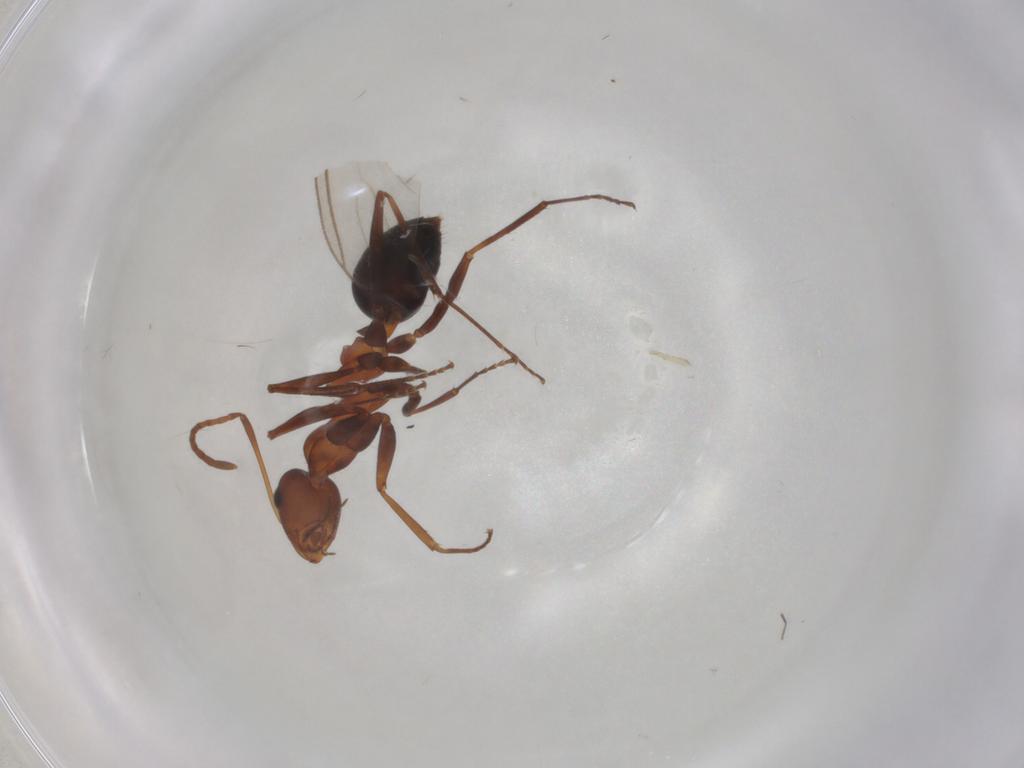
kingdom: Animalia
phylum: Arthropoda
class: Insecta
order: Hymenoptera
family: Formicidae
